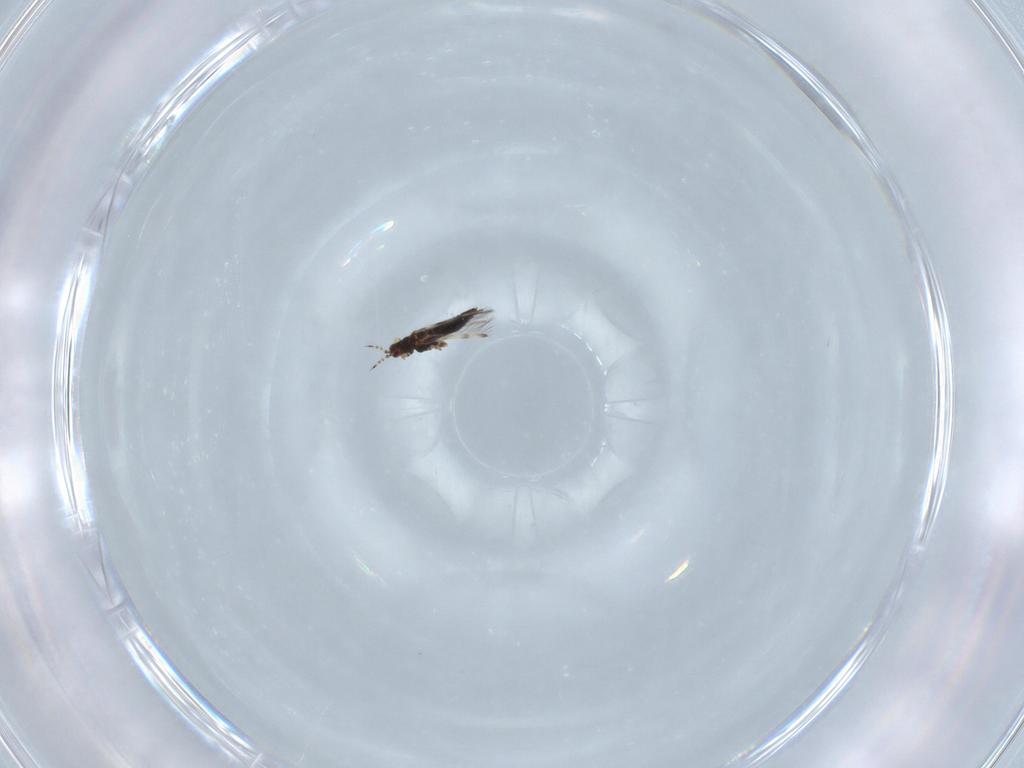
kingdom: Animalia
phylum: Arthropoda
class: Insecta
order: Thysanoptera
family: Thripidae
